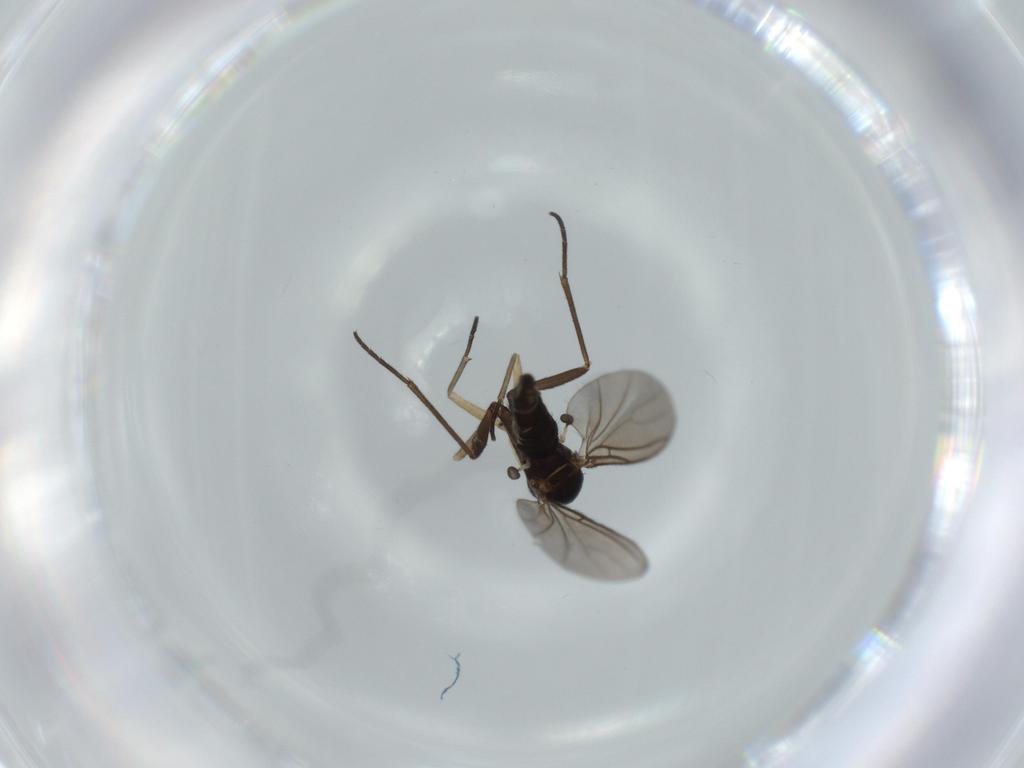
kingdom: Animalia
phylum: Arthropoda
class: Insecta
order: Diptera
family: Sciaridae
